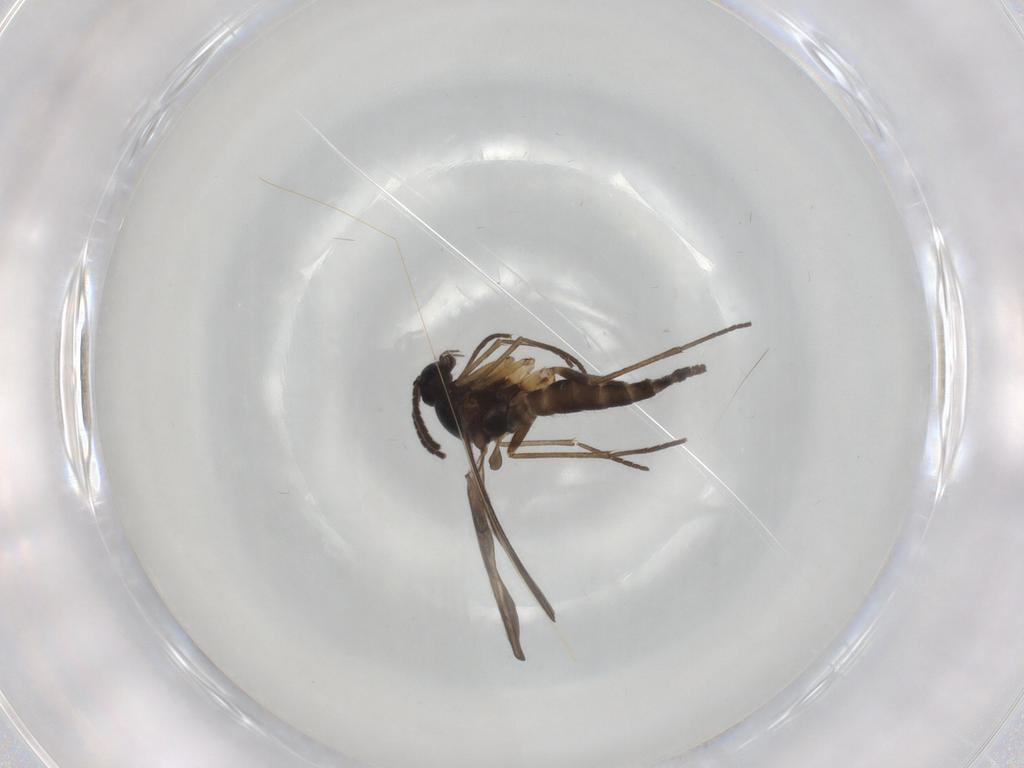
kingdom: Animalia
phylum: Arthropoda
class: Insecta
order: Diptera
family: Sciaridae
